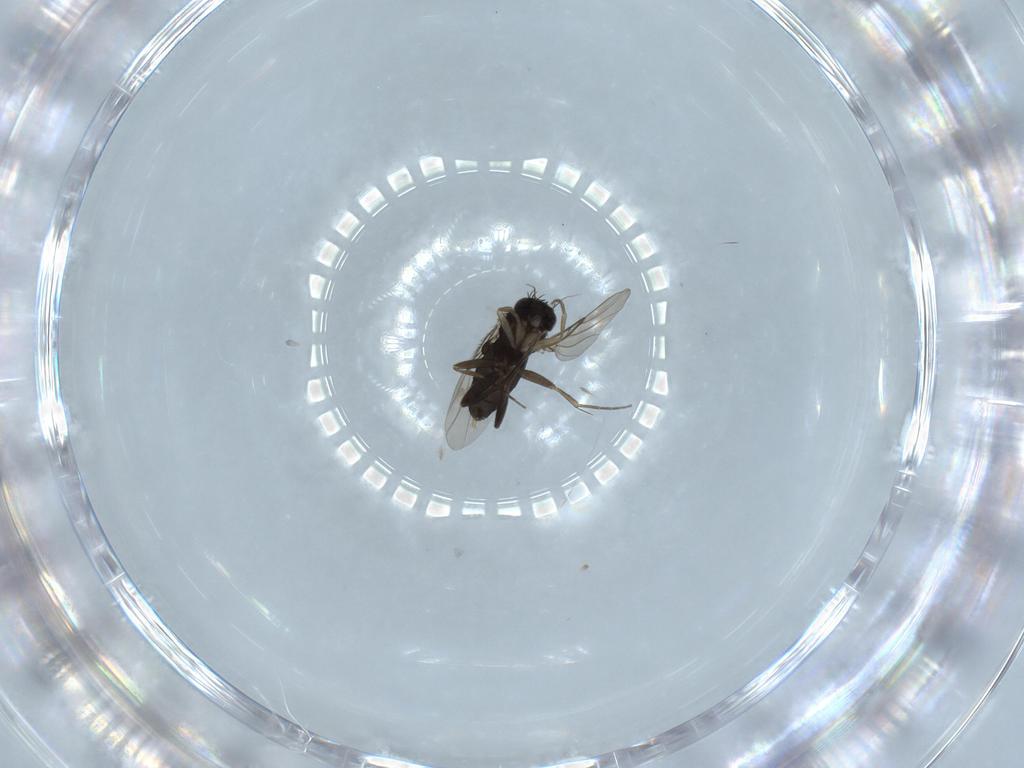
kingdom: Animalia
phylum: Arthropoda
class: Insecta
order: Diptera
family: Phoridae
